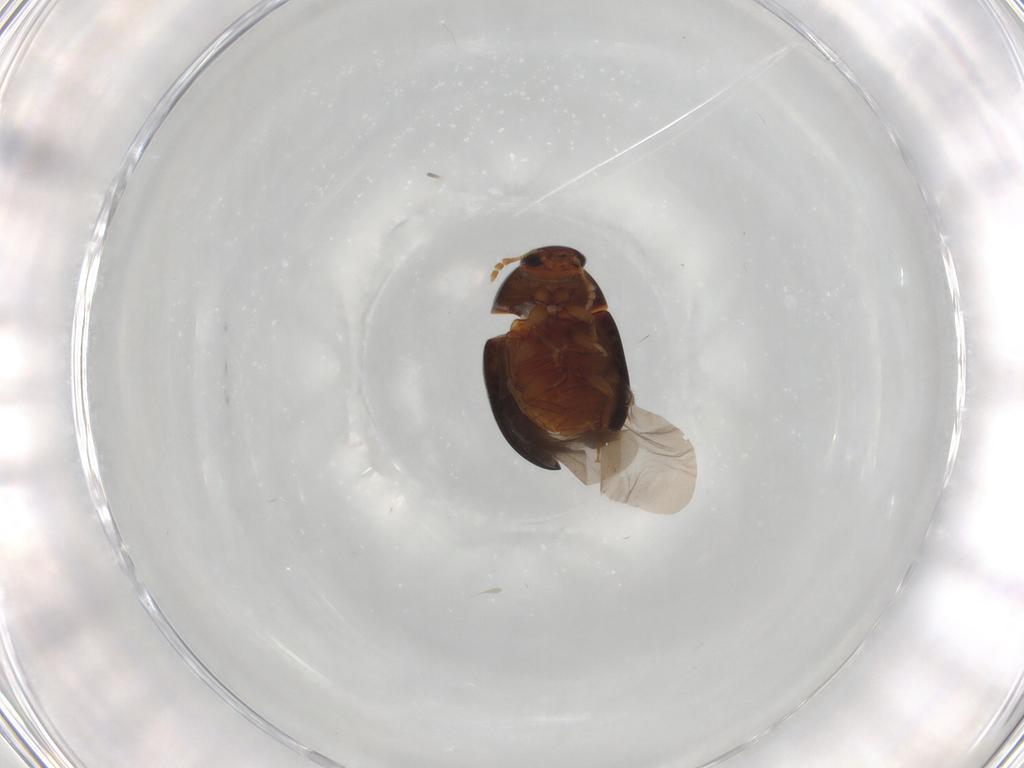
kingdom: Animalia
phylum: Arthropoda
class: Insecta
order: Coleoptera
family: Phalacridae
